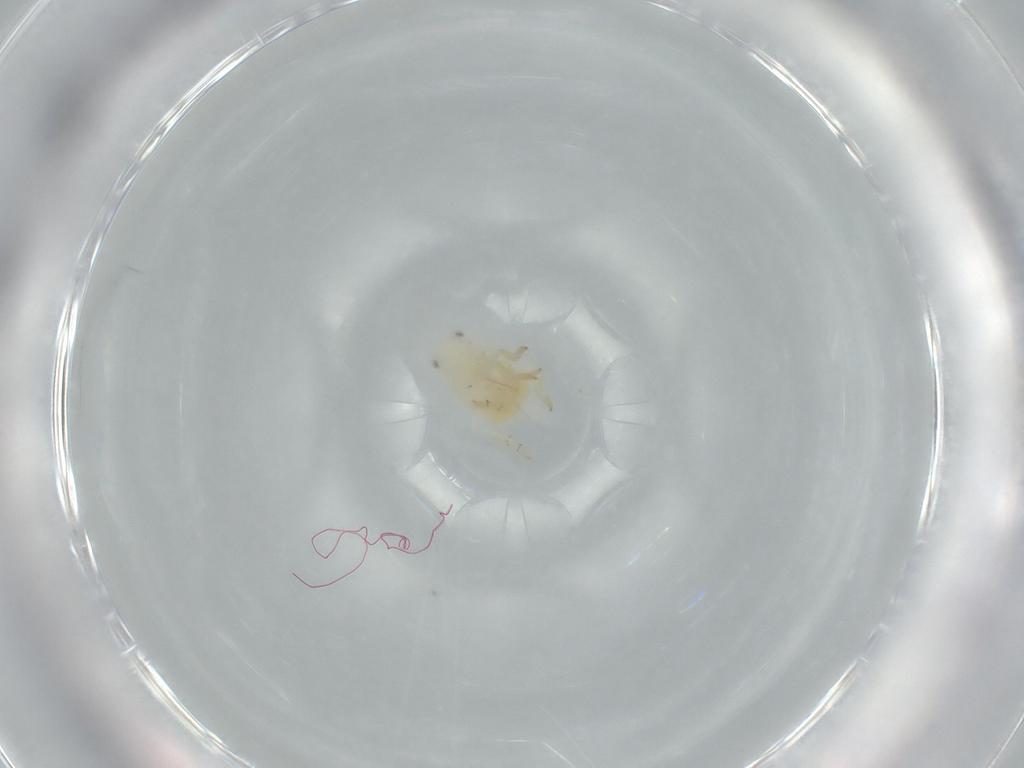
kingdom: Animalia
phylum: Arthropoda
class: Insecta
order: Hemiptera
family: Flatidae
